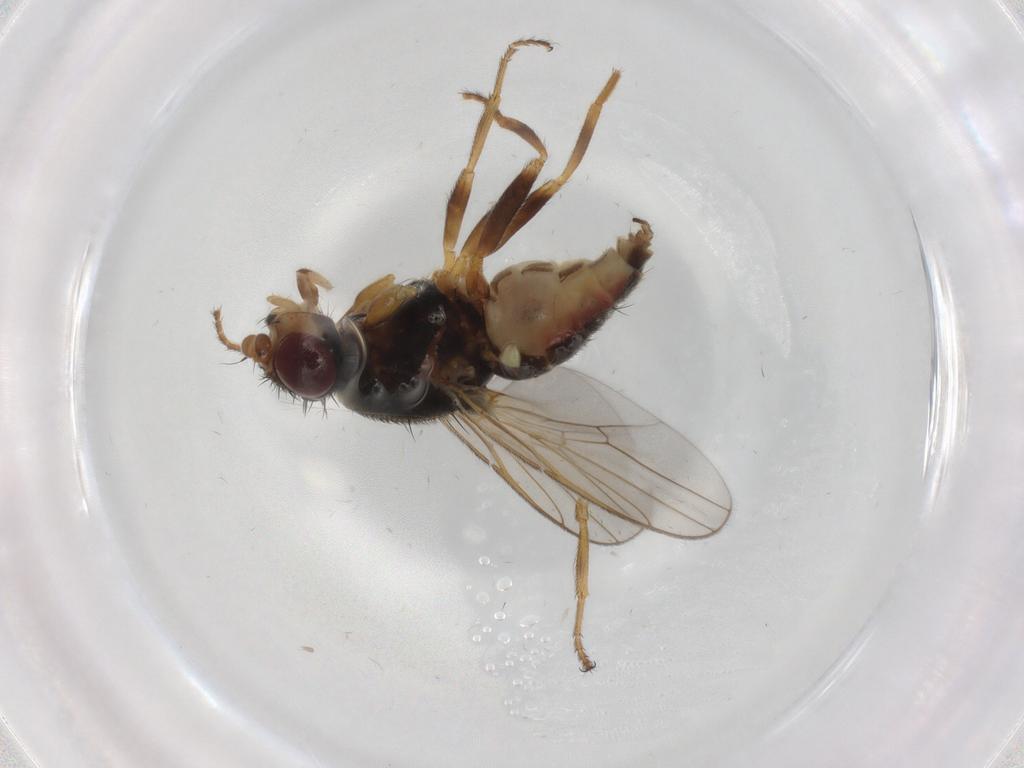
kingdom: Animalia
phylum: Arthropoda
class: Insecta
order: Diptera
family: Chloropidae
